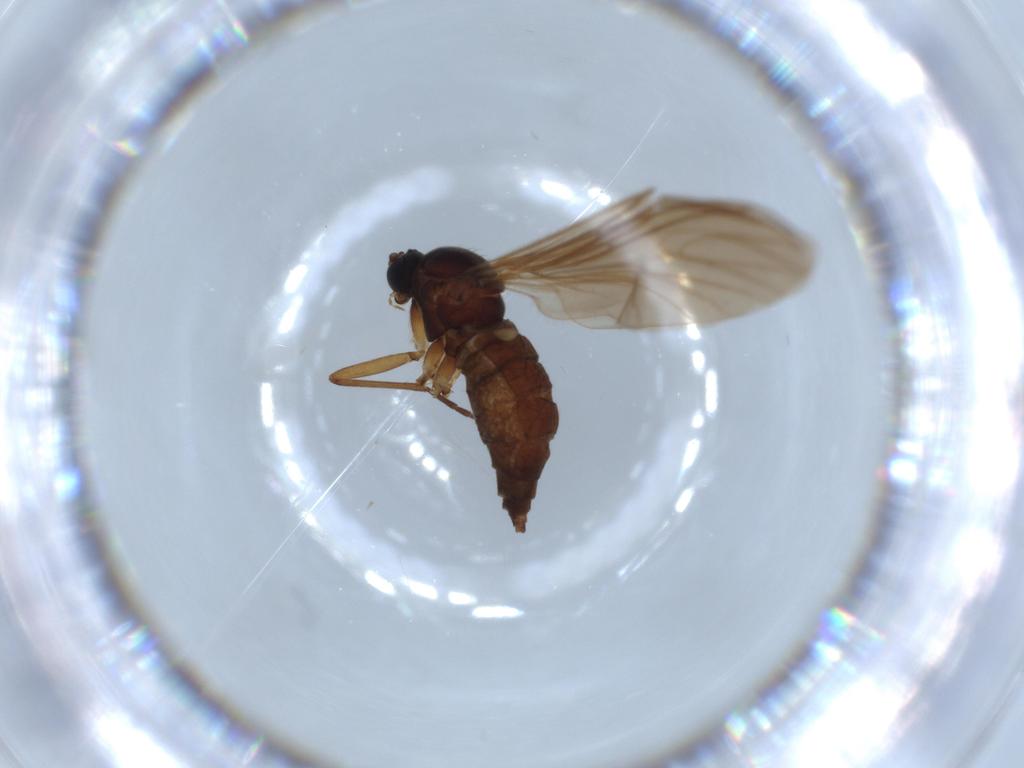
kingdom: Animalia
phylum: Arthropoda
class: Insecta
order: Diptera
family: Sciaridae
